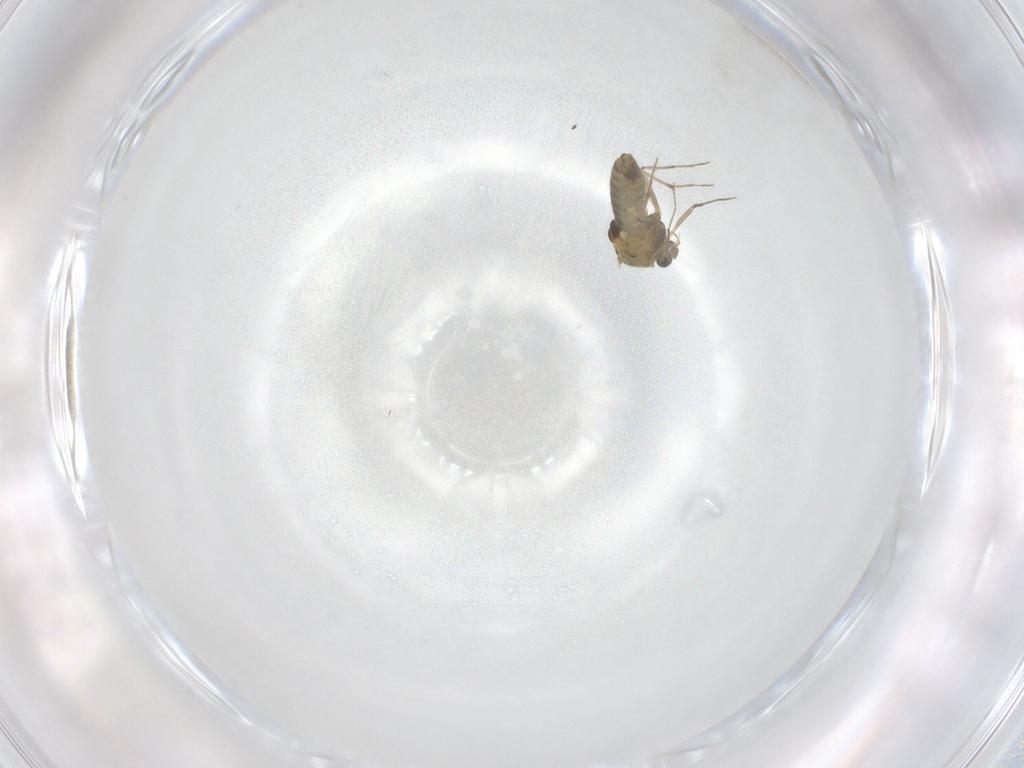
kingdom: Animalia
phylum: Arthropoda
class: Insecta
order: Diptera
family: Chironomidae
